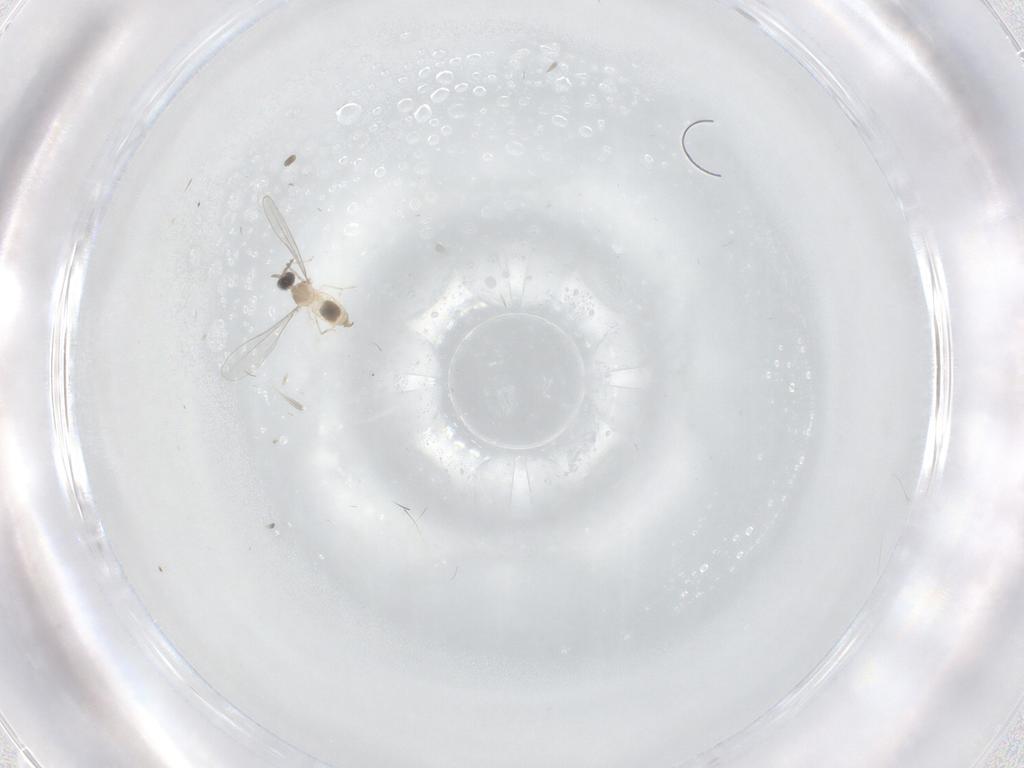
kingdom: Animalia
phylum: Arthropoda
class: Insecta
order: Diptera
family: Cecidomyiidae
